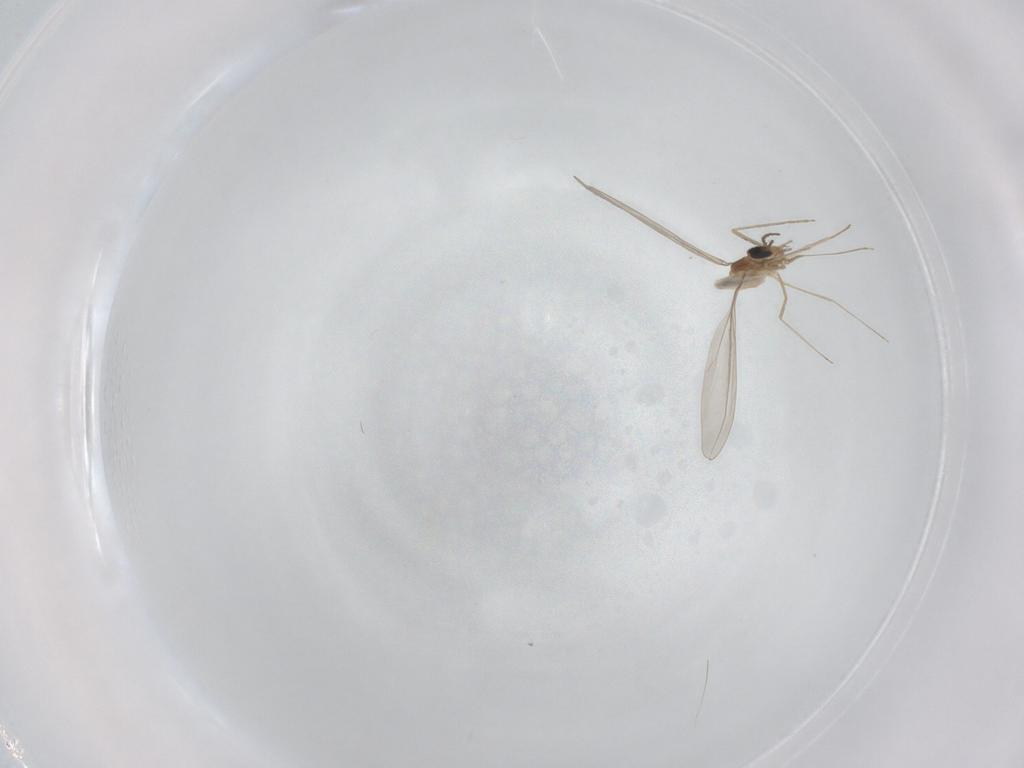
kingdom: Animalia
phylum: Arthropoda
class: Insecta
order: Diptera
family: Cecidomyiidae
